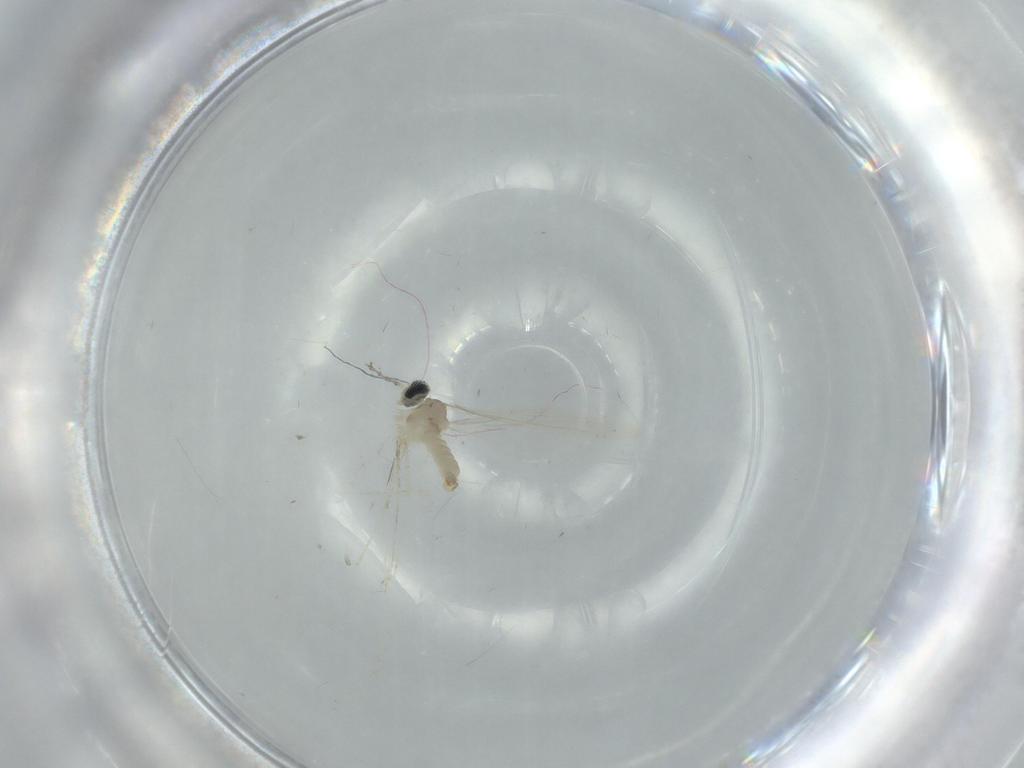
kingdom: Animalia
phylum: Arthropoda
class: Insecta
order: Diptera
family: Cecidomyiidae
